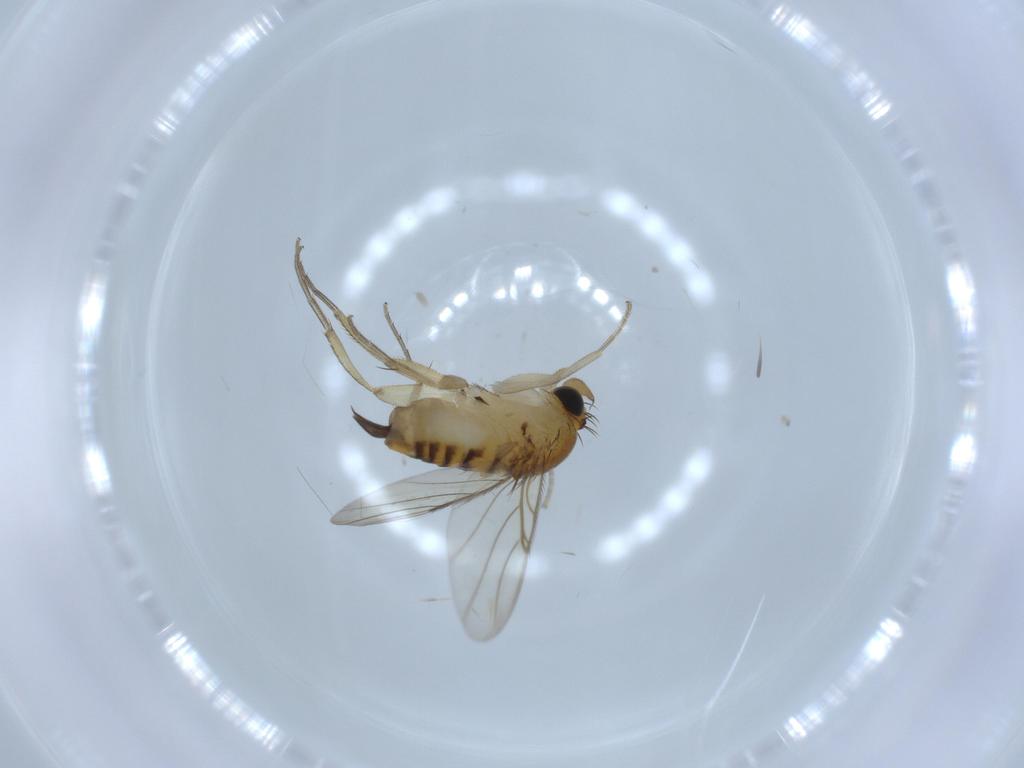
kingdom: Animalia
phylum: Arthropoda
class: Insecta
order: Diptera
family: Phoridae
